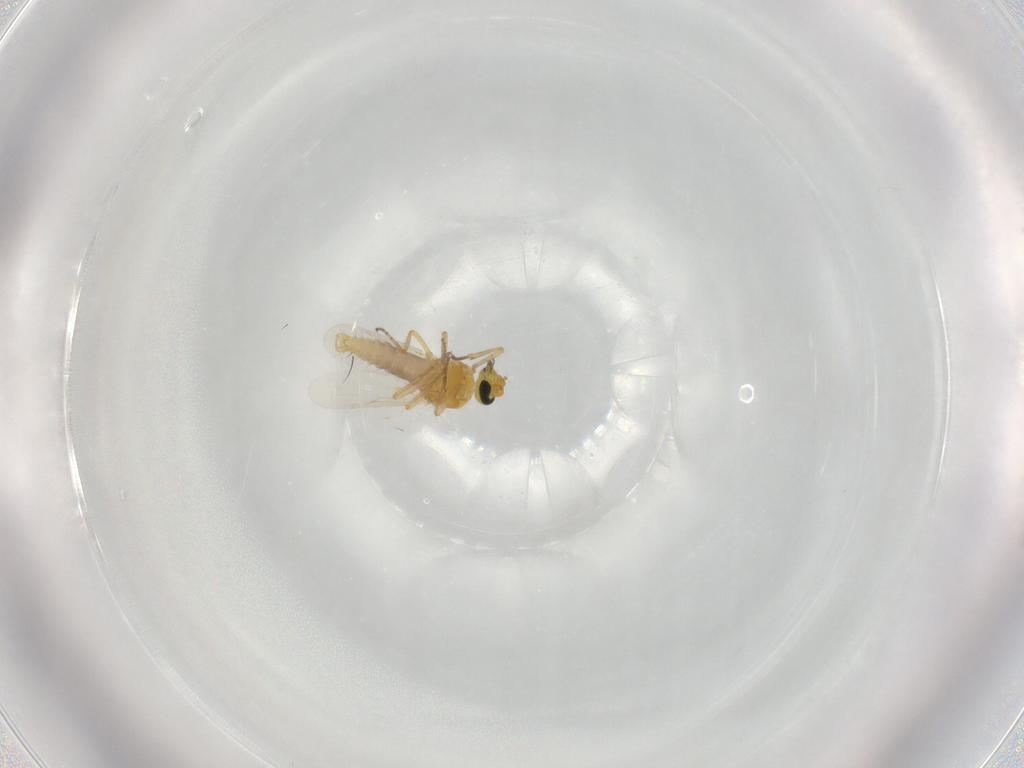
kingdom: Animalia
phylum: Arthropoda
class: Insecta
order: Diptera
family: Ceratopogonidae
